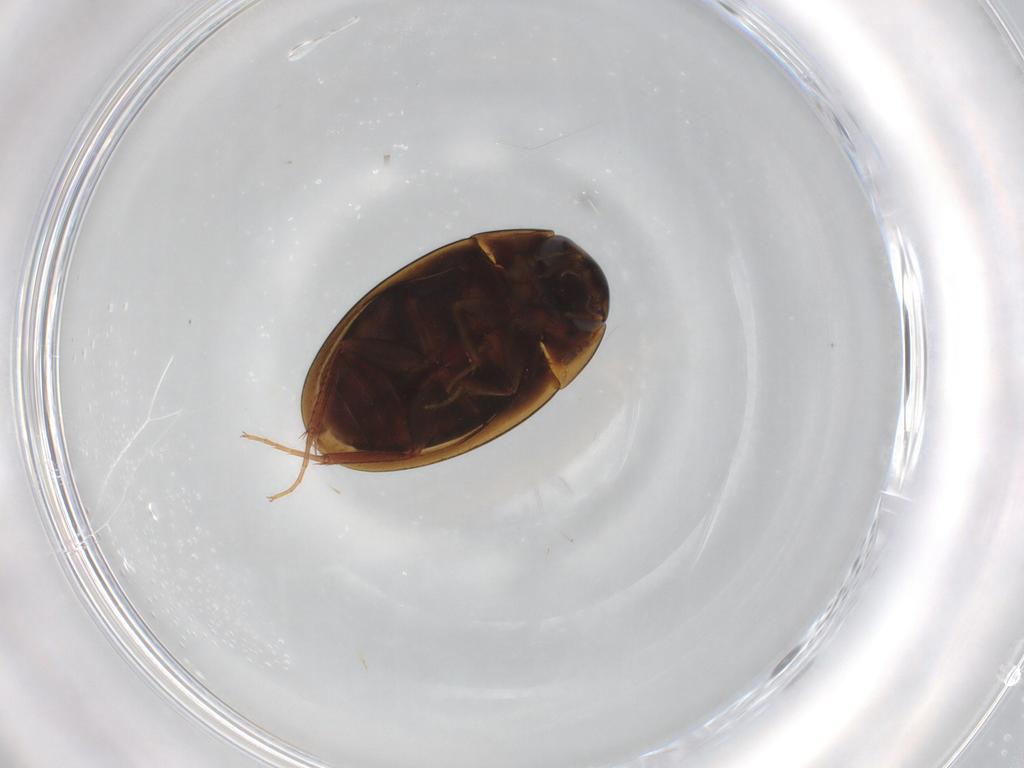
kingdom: Animalia
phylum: Arthropoda
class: Insecta
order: Coleoptera
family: Hydrophilidae
